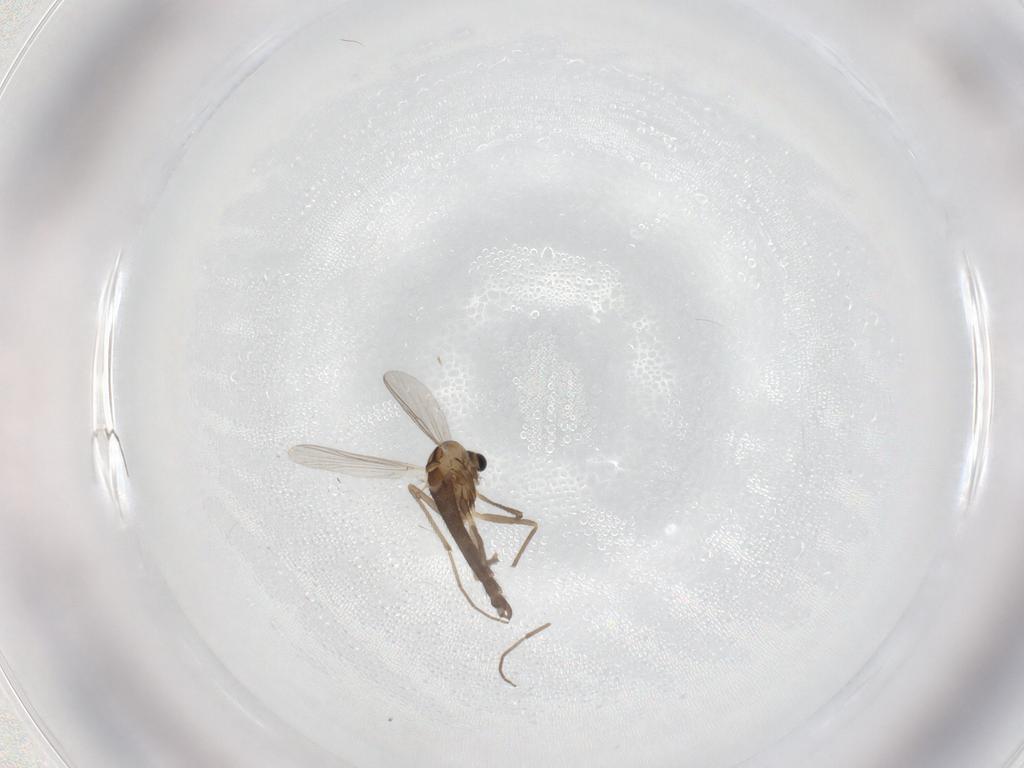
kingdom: Animalia
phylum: Arthropoda
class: Insecta
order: Diptera
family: Chironomidae
